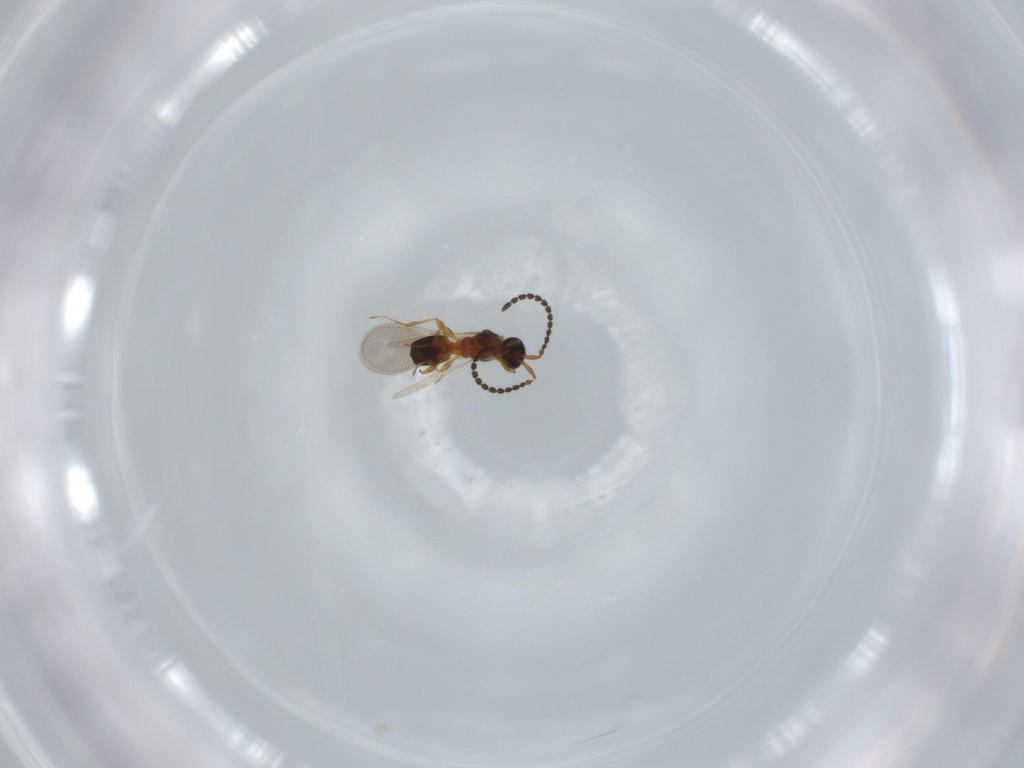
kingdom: Animalia
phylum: Arthropoda
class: Insecta
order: Hymenoptera
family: Diapriidae
